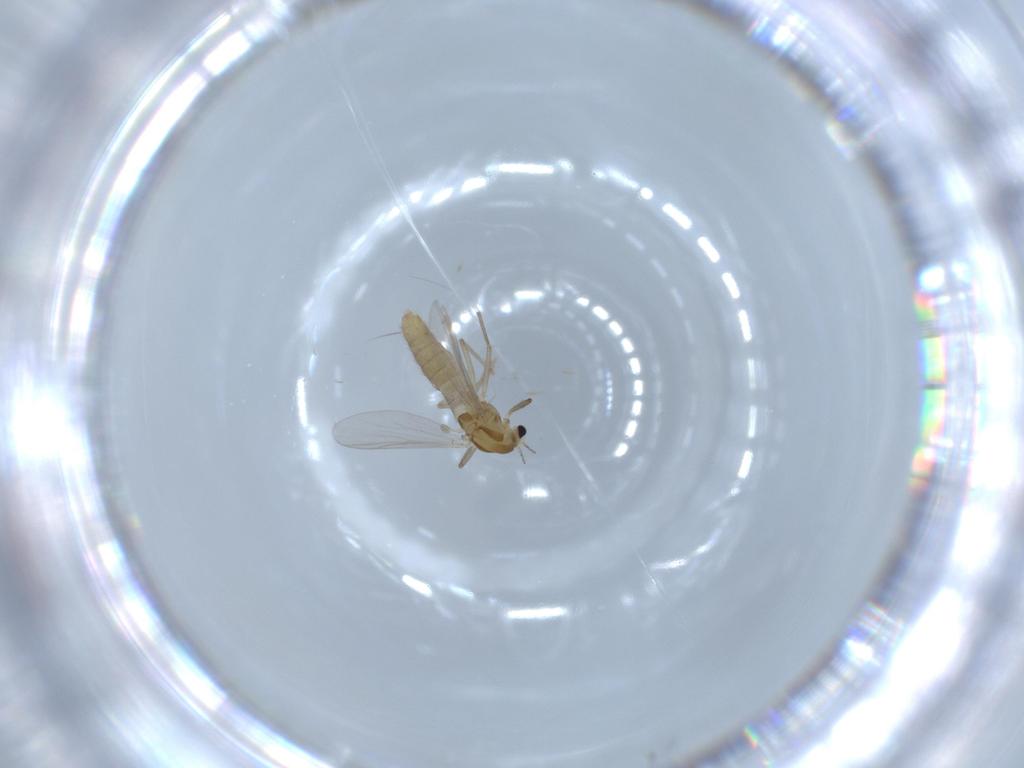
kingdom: Animalia
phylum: Arthropoda
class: Insecta
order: Diptera
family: Chironomidae
